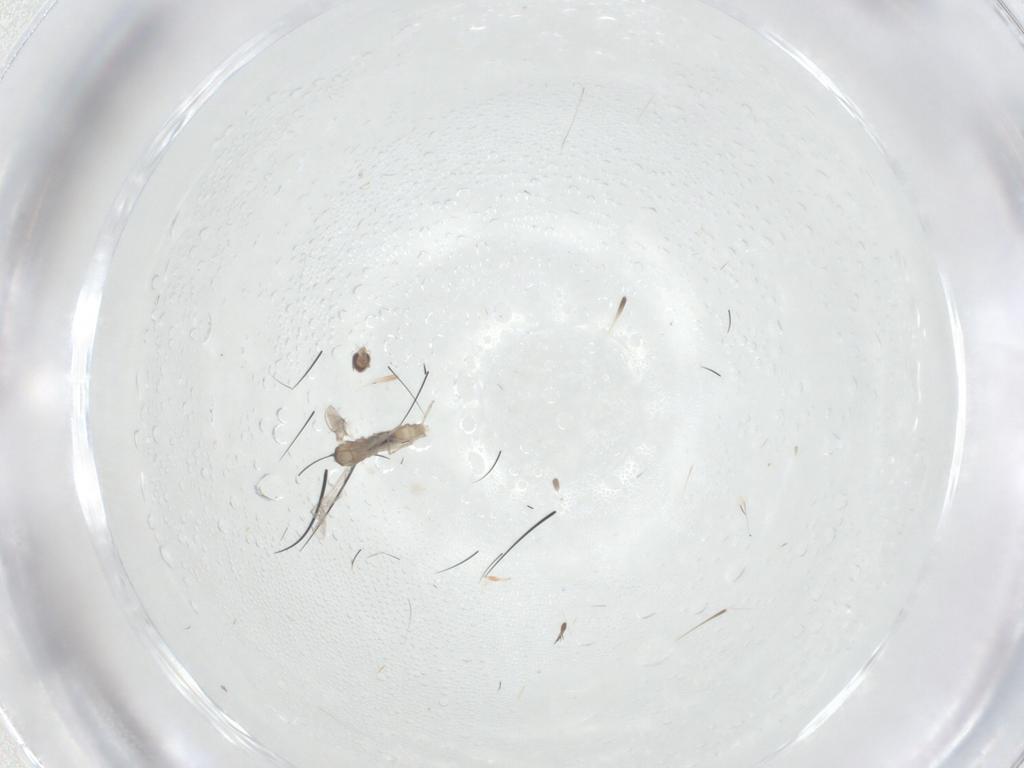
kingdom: Animalia
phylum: Arthropoda
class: Insecta
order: Diptera
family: Cecidomyiidae
